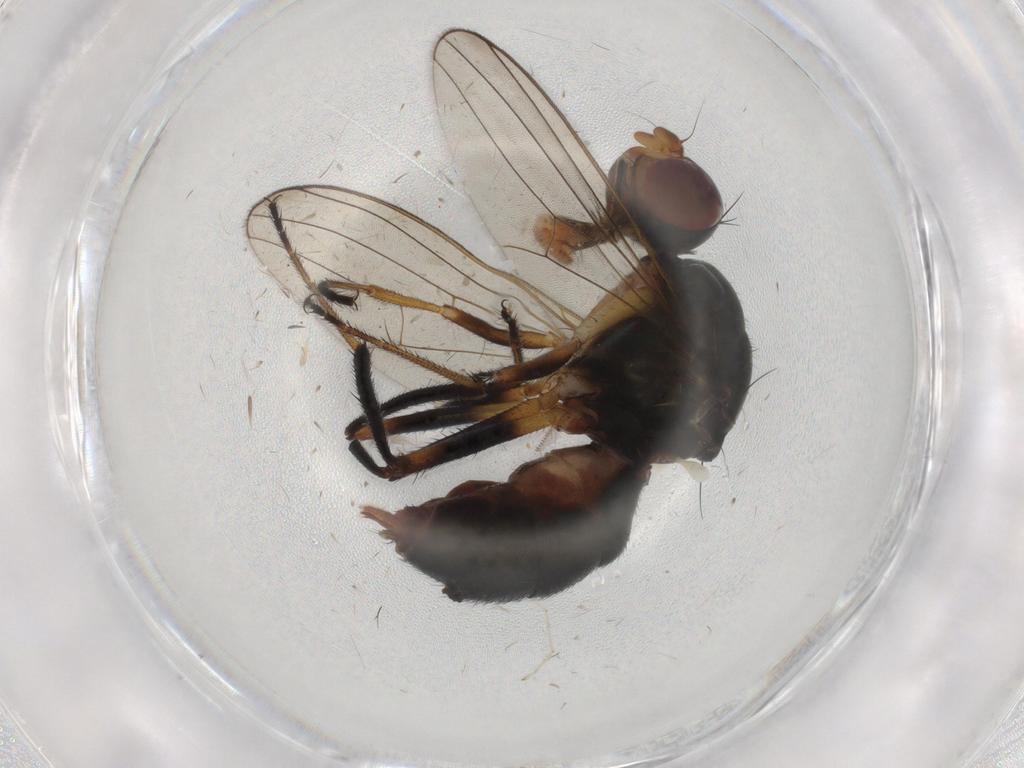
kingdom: Animalia
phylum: Arthropoda
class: Insecta
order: Diptera
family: Sepsidae
